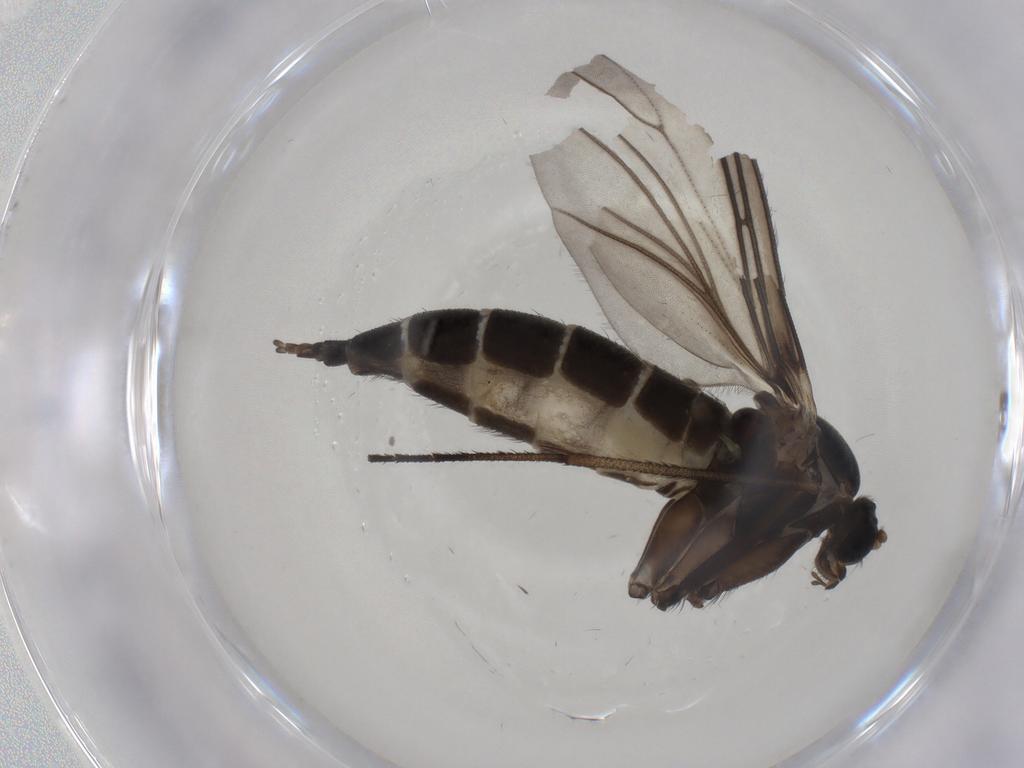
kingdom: Animalia
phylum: Arthropoda
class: Insecta
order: Diptera
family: Sciaridae
